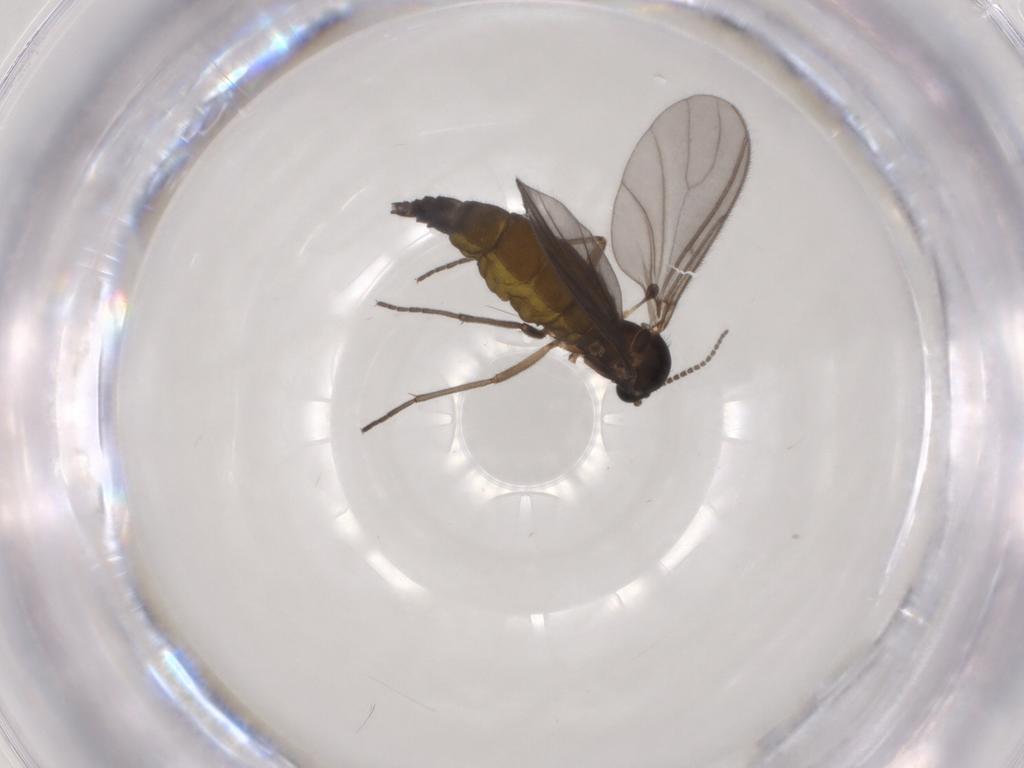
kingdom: Animalia
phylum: Arthropoda
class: Insecta
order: Diptera
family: Sciaridae
